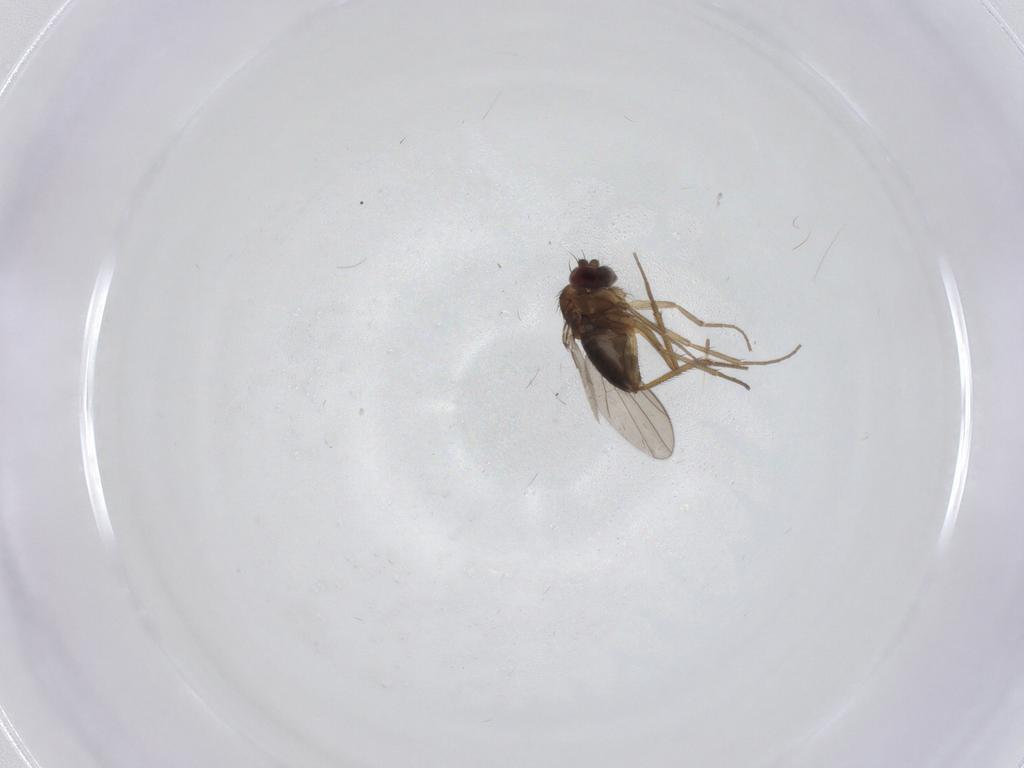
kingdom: Animalia
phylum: Arthropoda
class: Insecta
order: Diptera
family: Dolichopodidae
